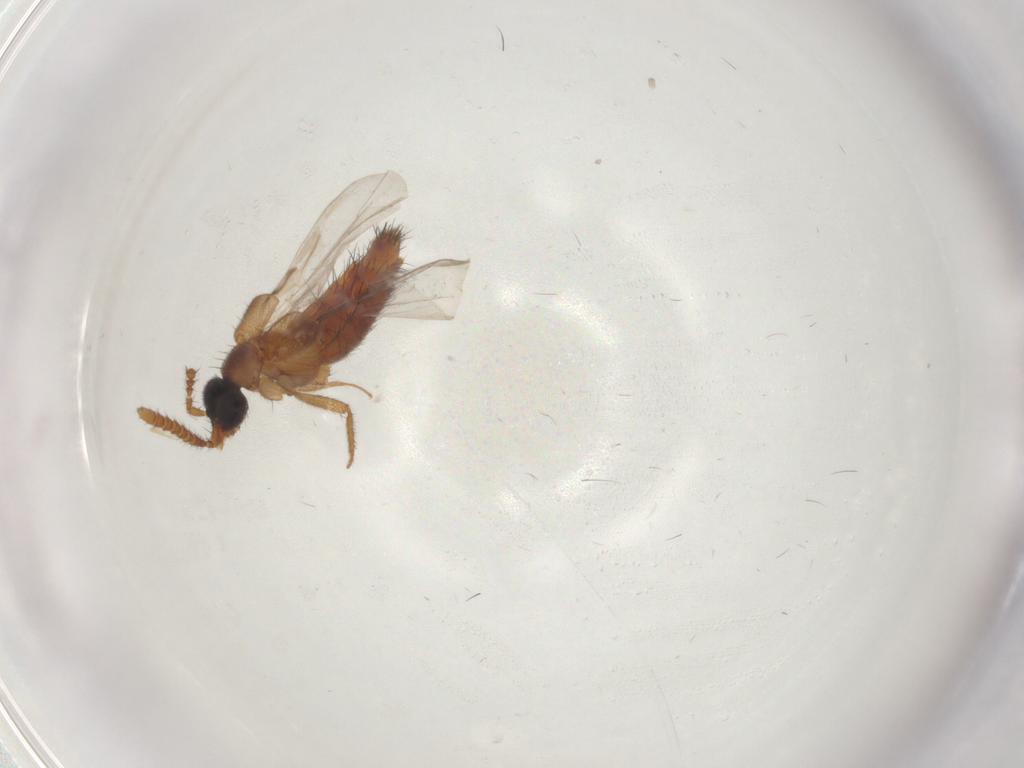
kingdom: Animalia
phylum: Arthropoda
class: Insecta
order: Coleoptera
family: Staphylinidae
